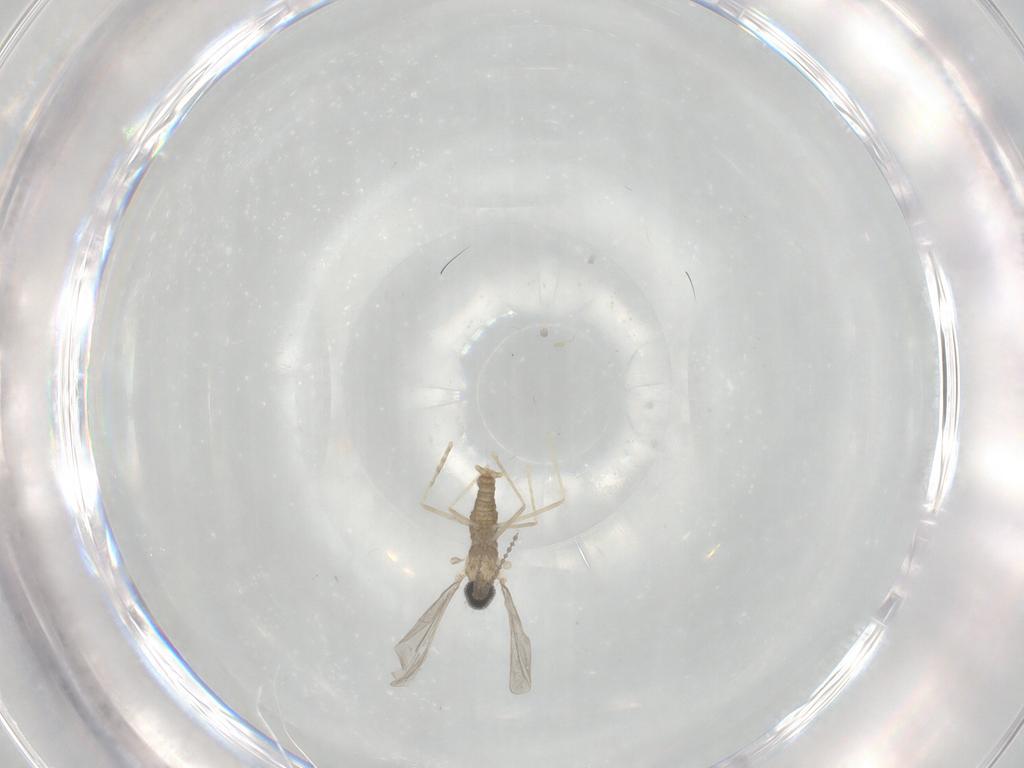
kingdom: Animalia
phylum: Arthropoda
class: Insecta
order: Diptera
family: Cecidomyiidae
